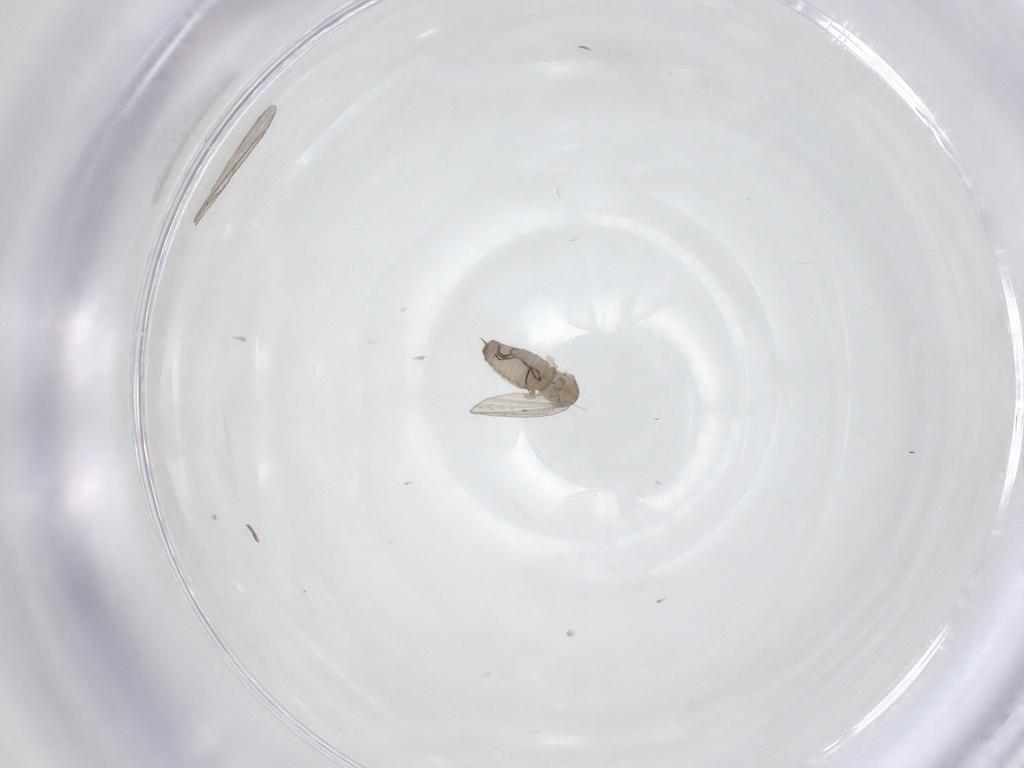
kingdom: Animalia
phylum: Arthropoda
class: Insecta
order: Diptera
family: Psychodidae
